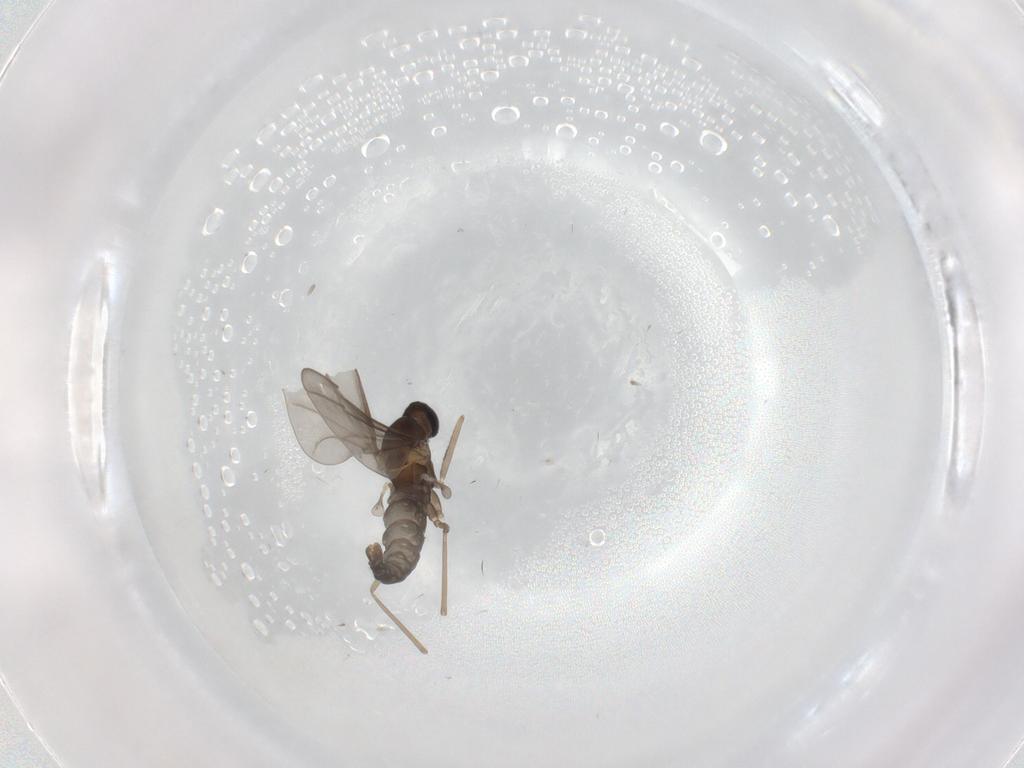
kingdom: Animalia
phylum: Arthropoda
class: Insecta
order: Diptera
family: Cecidomyiidae
